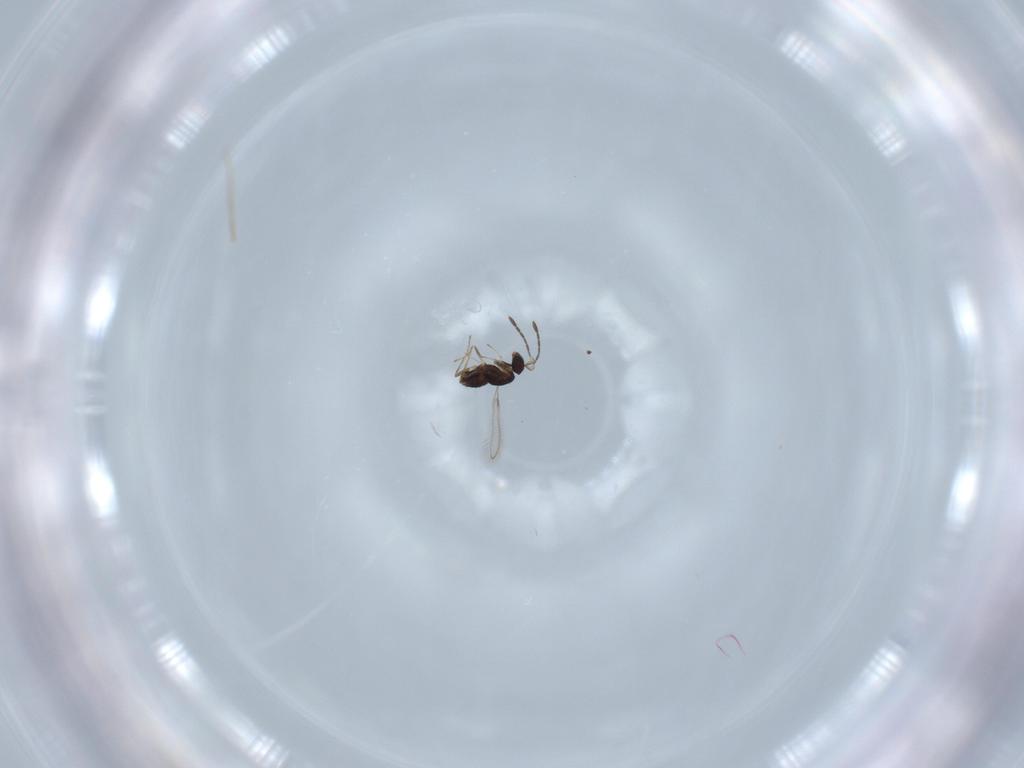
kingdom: Animalia
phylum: Arthropoda
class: Insecta
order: Hymenoptera
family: Mymaridae
